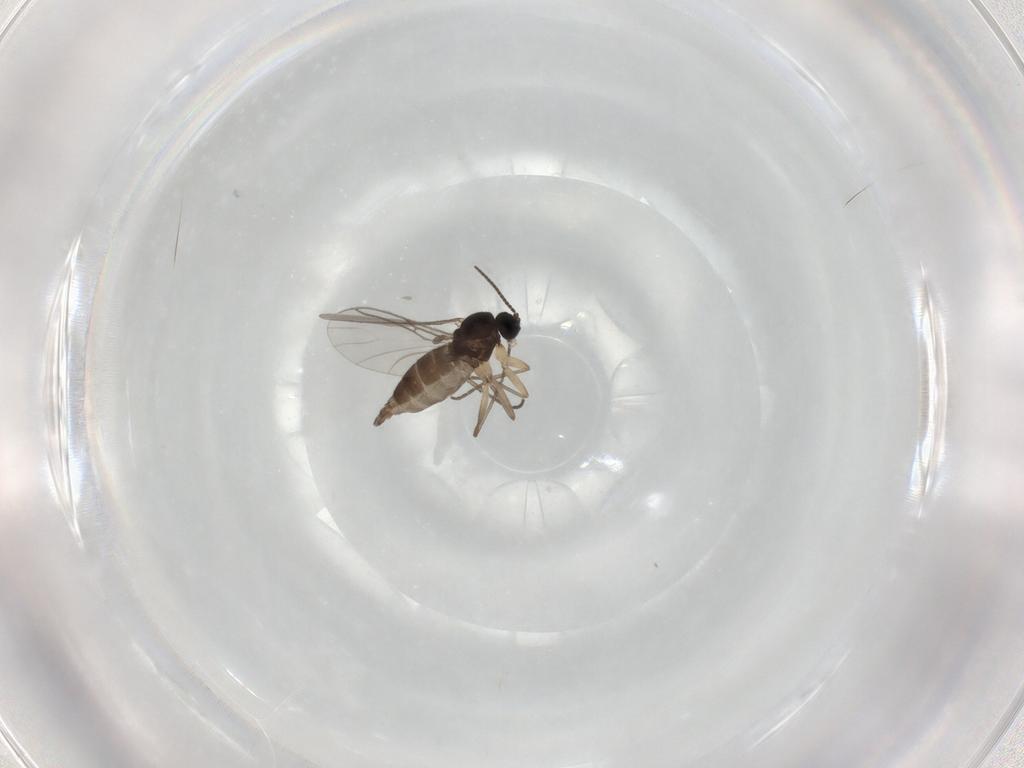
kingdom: Animalia
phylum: Arthropoda
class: Insecta
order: Diptera
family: Sciaridae
